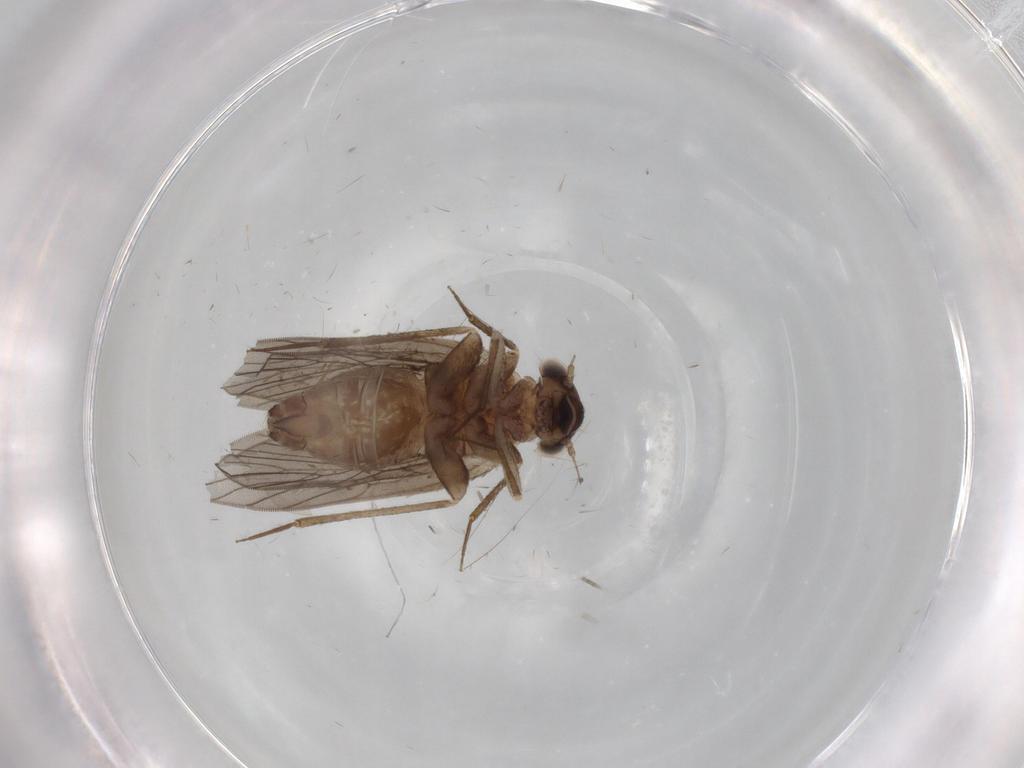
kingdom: Animalia
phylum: Arthropoda
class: Insecta
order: Psocodea
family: Lepidopsocidae
